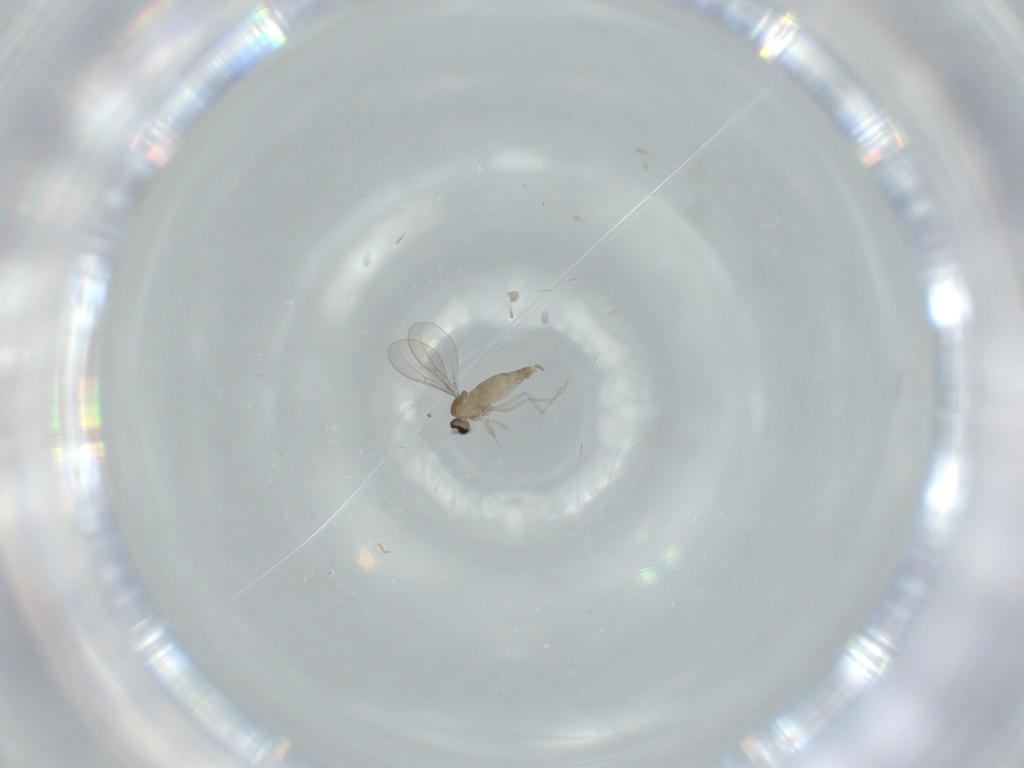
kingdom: Animalia
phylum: Arthropoda
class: Insecta
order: Diptera
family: Cecidomyiidae
